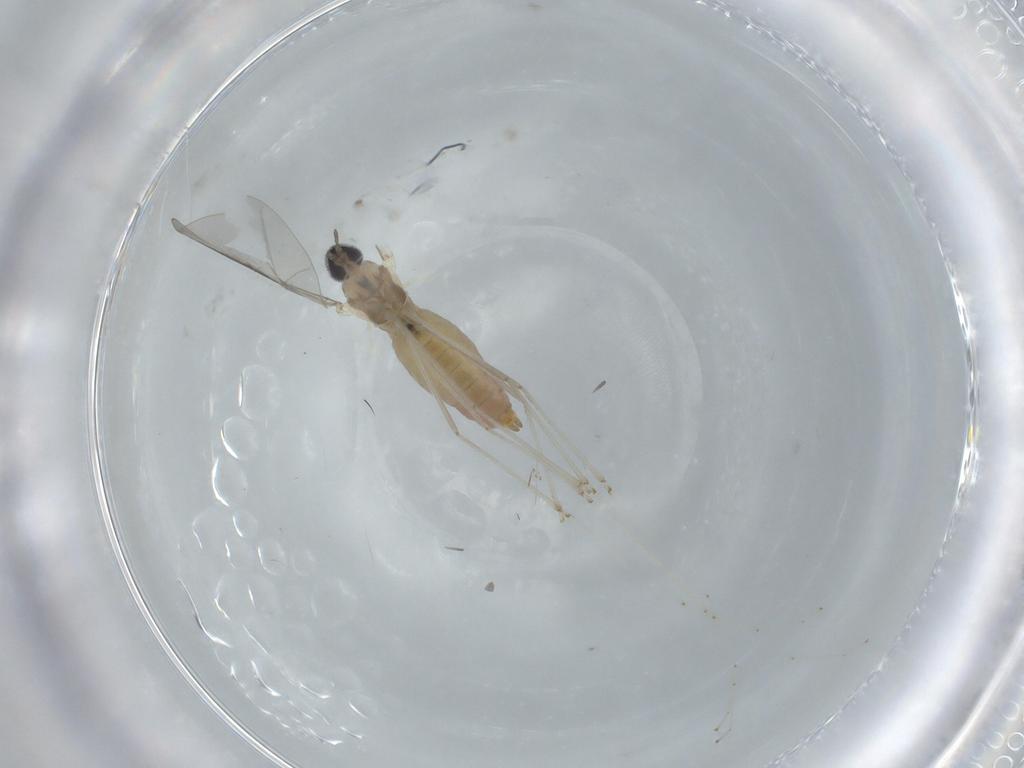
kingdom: Animalia
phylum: Arthropoda
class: Insecta
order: Diptera
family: Cecidomyiidae
